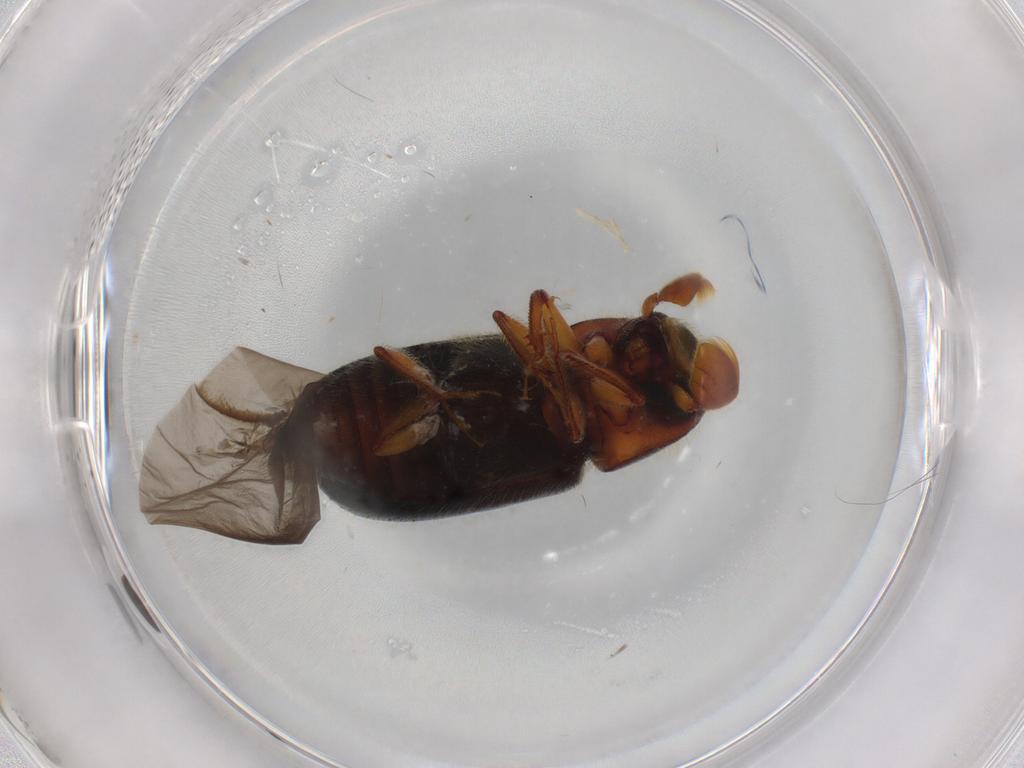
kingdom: Animalia
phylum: Arthropoda
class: Insecta
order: Coleoptera
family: Curculionidae
